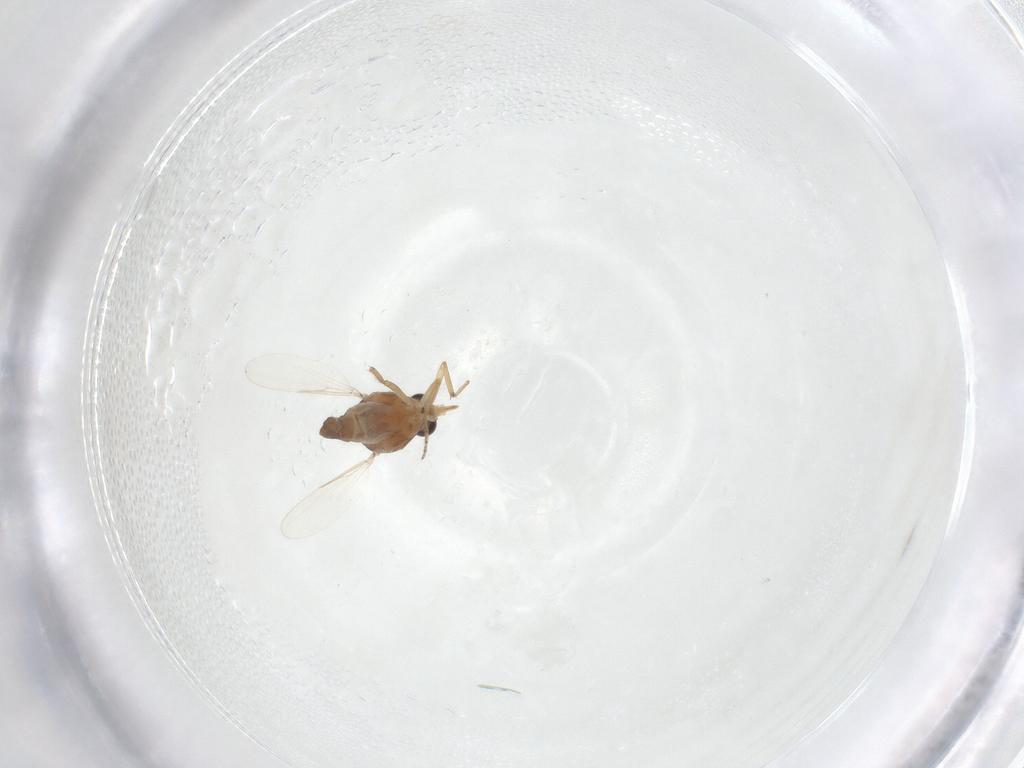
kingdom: Animalia
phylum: Arthropoda
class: Insecta
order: Diptera
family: Ceratopogonidae
